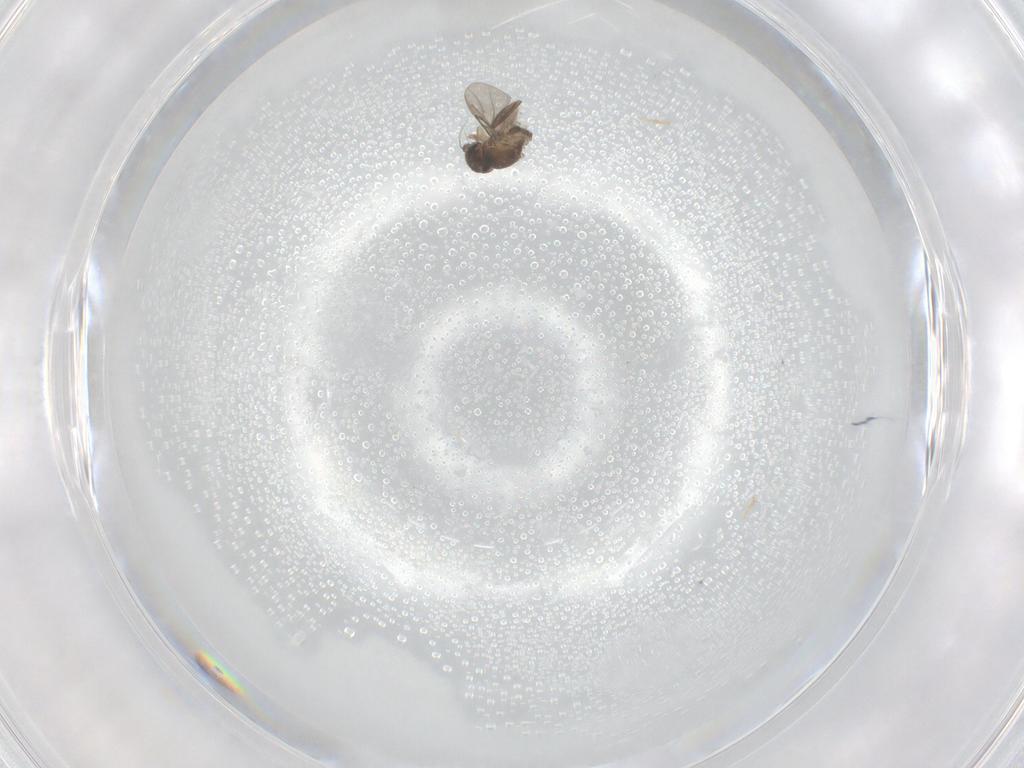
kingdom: Animalia
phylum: Arthropoda
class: Insecta
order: Diptera
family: Phoridae
